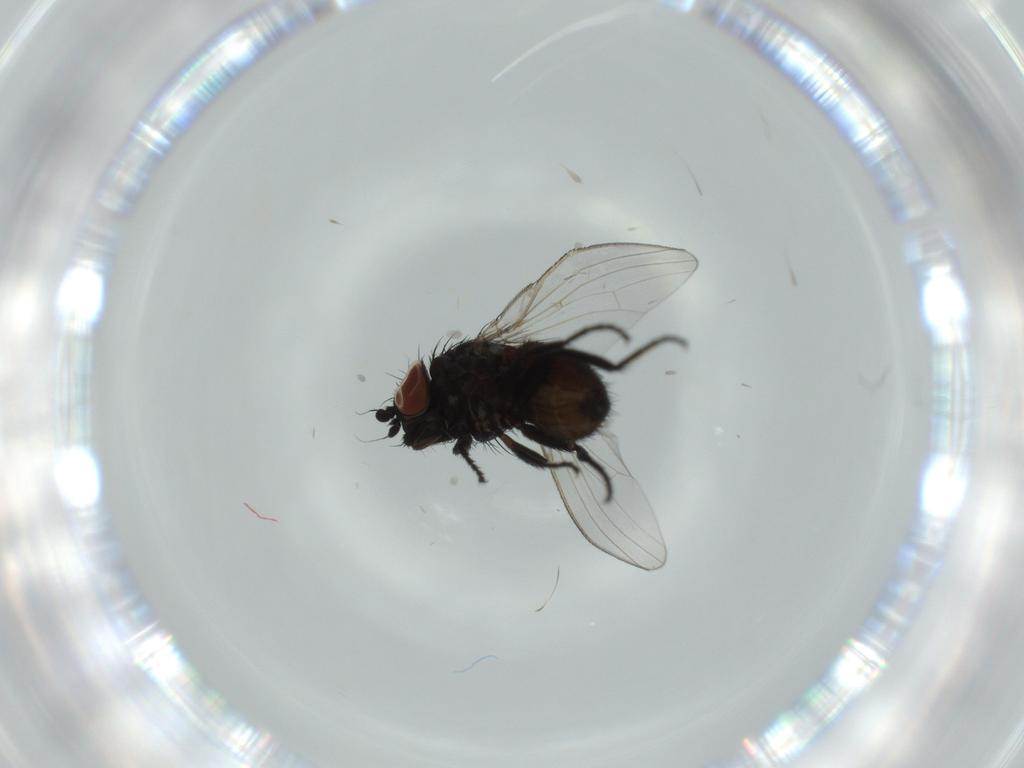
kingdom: Animalia
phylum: Arthropoda
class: Insecta
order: Diptera
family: Milichiidae
